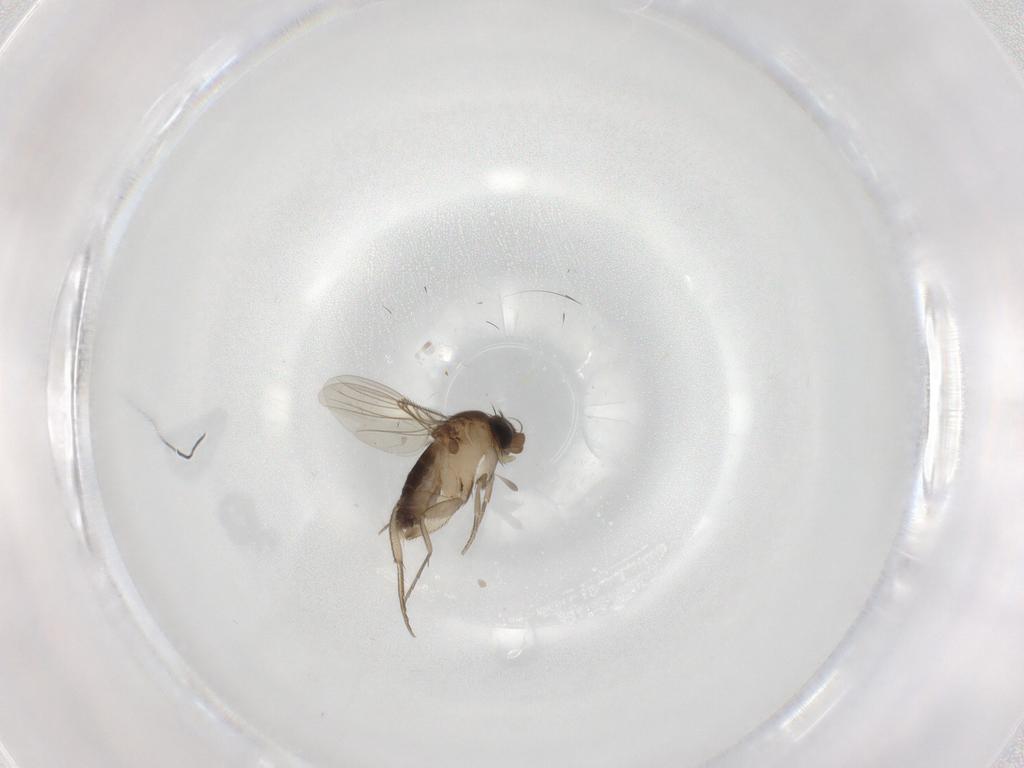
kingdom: Animalia
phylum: Arthropoda
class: Insecta
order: Diptera
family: Phoridae
